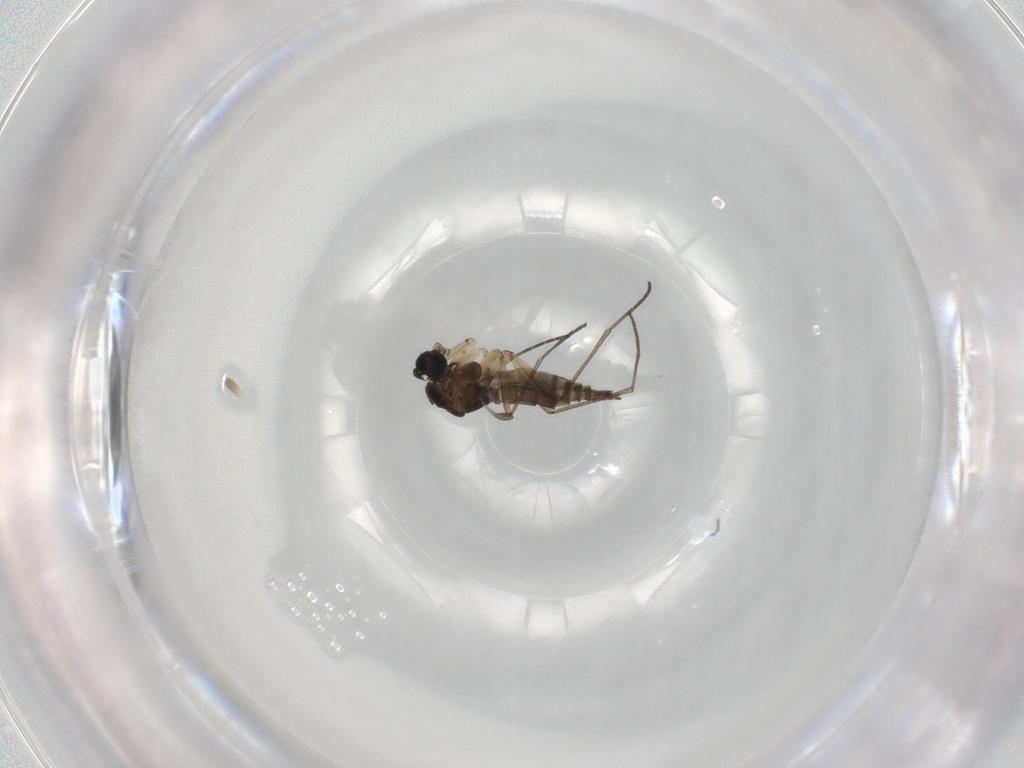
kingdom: Animalia
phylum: Arthropoda
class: Insecta
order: Diptera
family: Sciaridae
